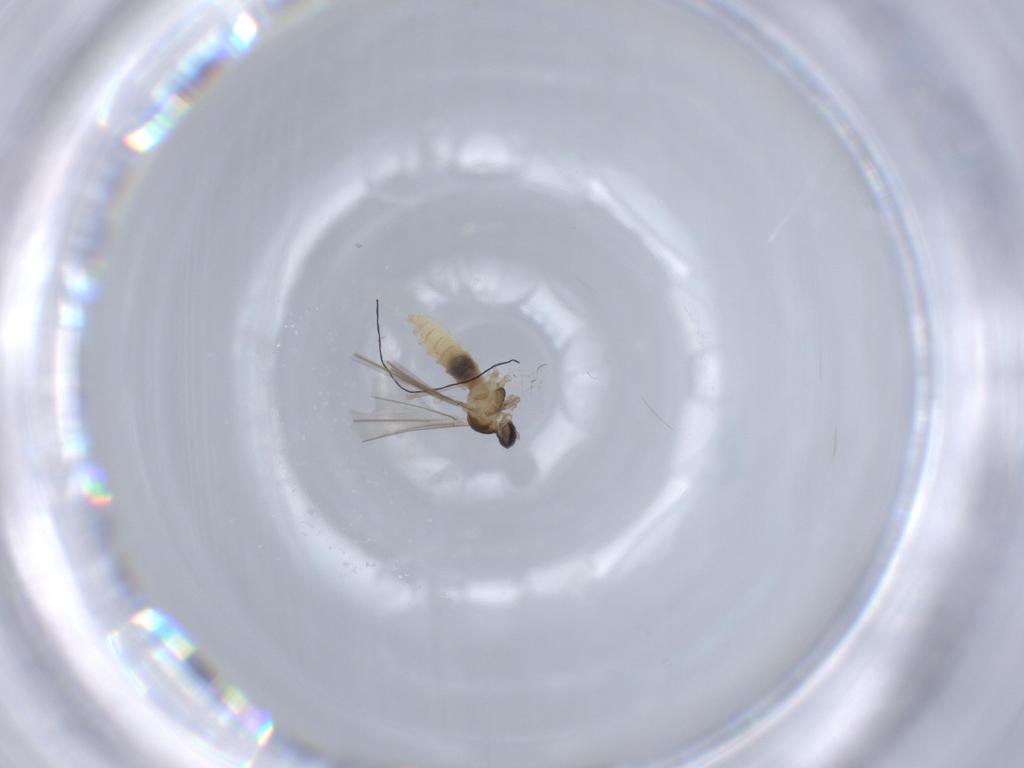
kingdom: Animalia
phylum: Arthropoda
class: Insecta
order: Diptera
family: Cecidomyiidae
